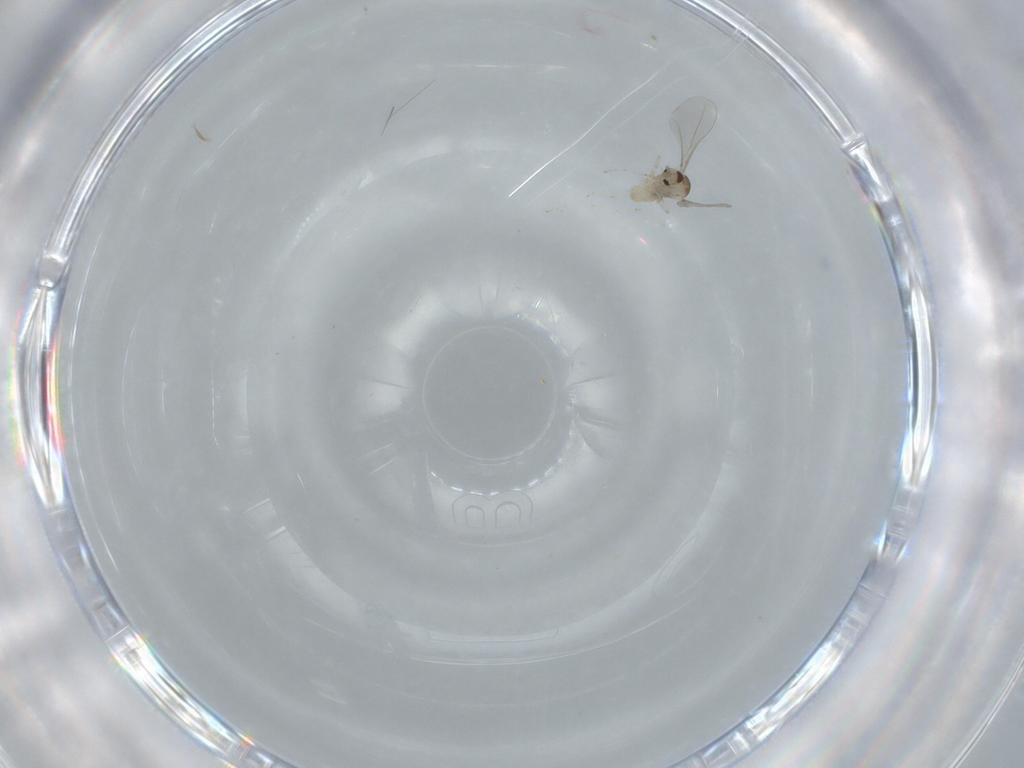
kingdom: Animalia
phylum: Arthropoda
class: Insecta
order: Diptera
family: Cecidomyiidae
